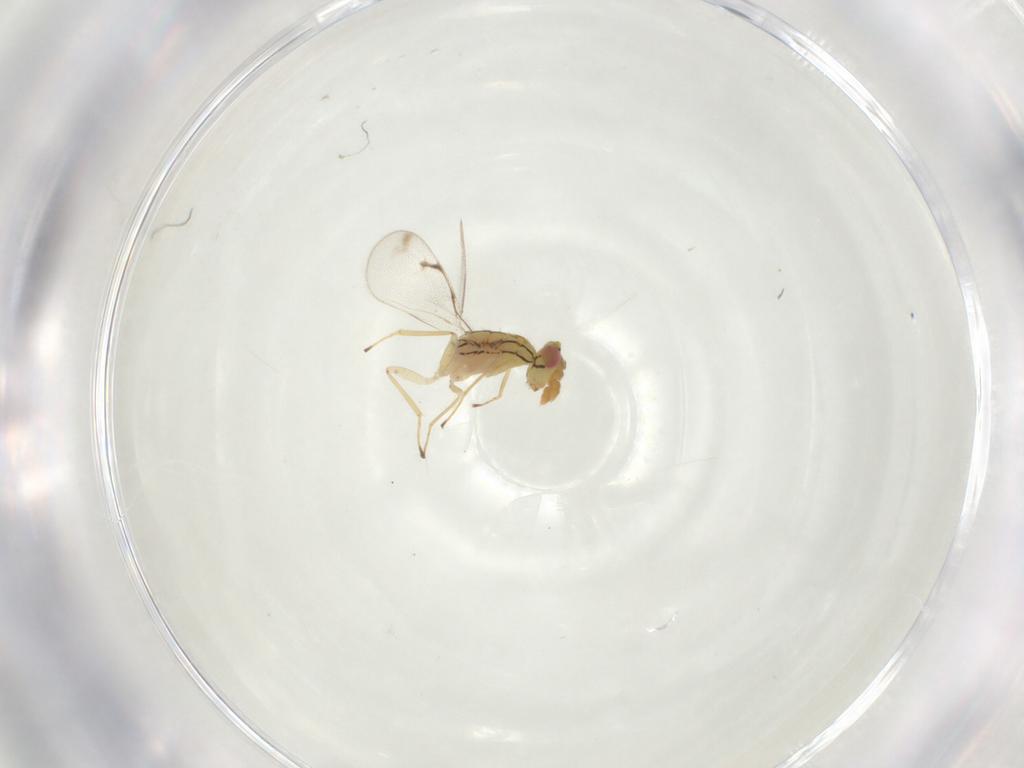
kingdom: Animalia
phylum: Arthropoda
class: Insecta
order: Hymenoptera
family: Eulophidae
